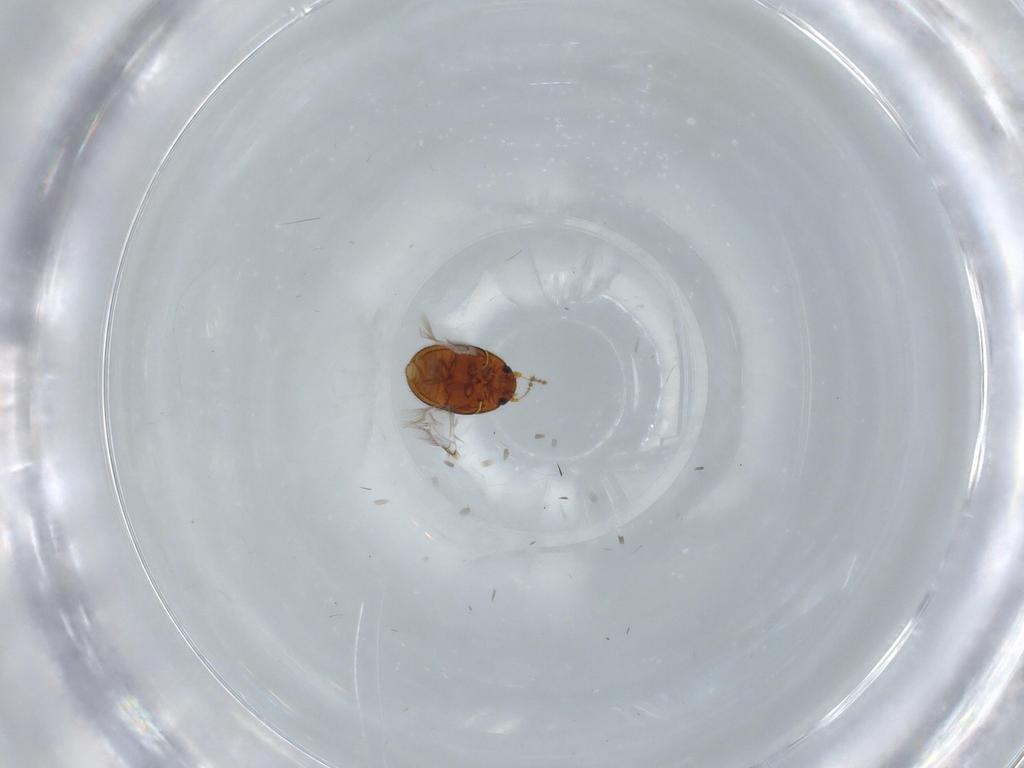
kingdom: Animalia
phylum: Arthropoda
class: Insecta
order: Coleoptera
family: Ptiliidae
